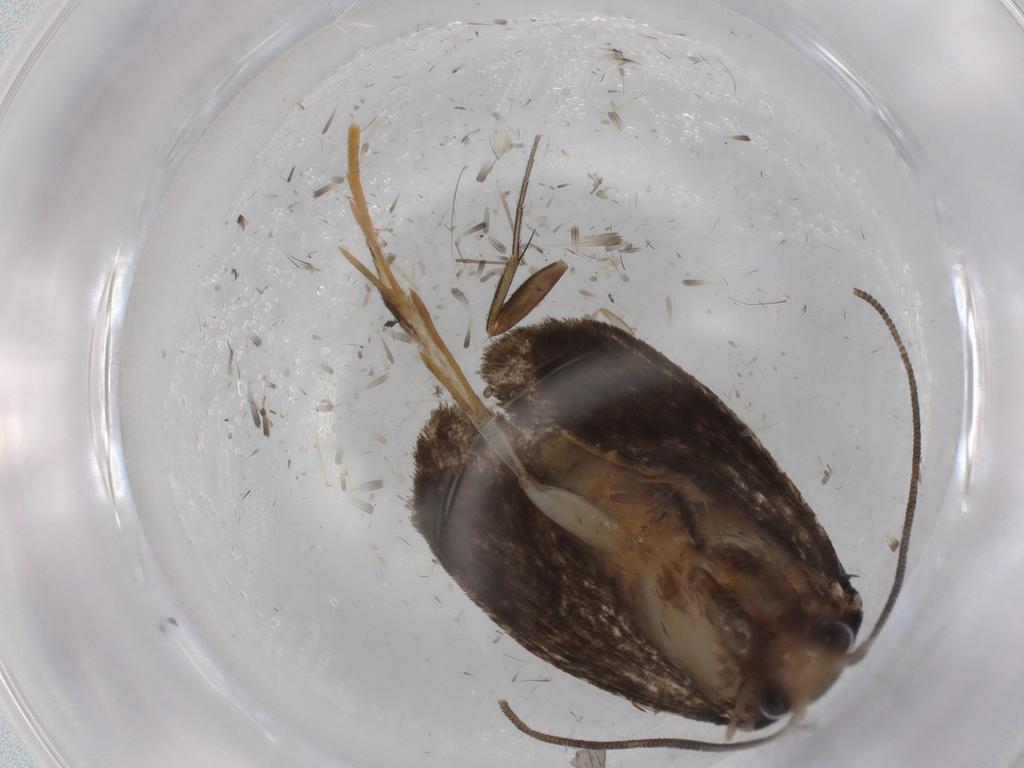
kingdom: Animalia
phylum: Arthropoda
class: Insecta
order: Lepidoptera
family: Tineidae
